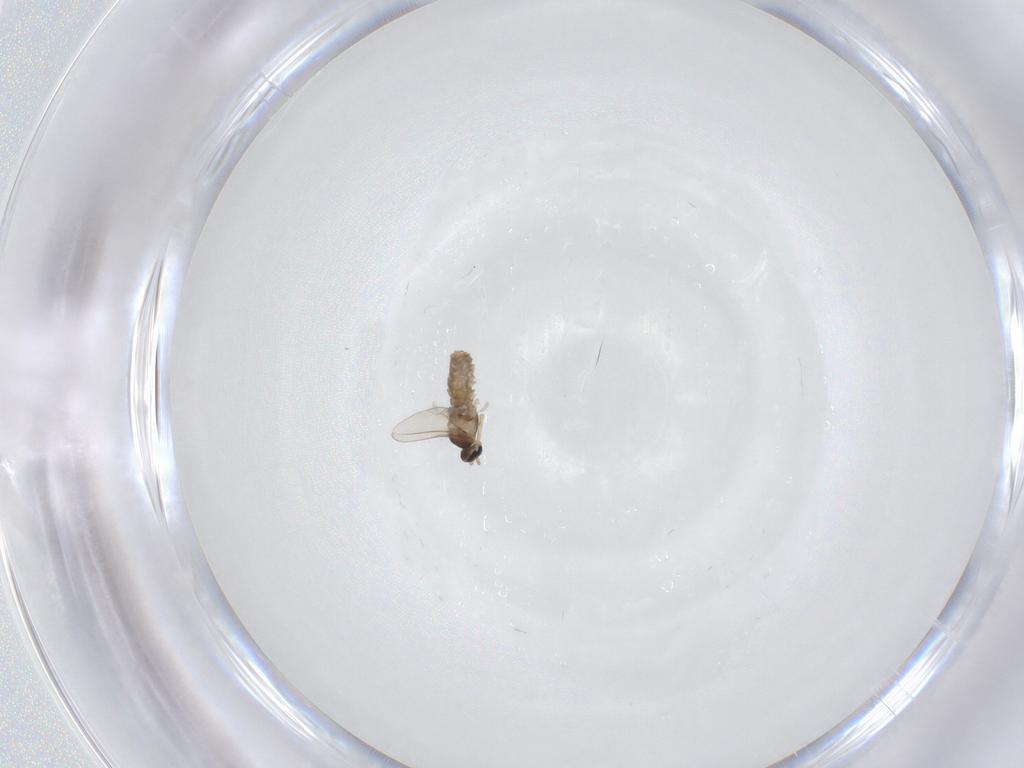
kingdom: Animalia
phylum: Arthropoda
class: Insecta
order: Diptera
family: Cecidomyiidae
